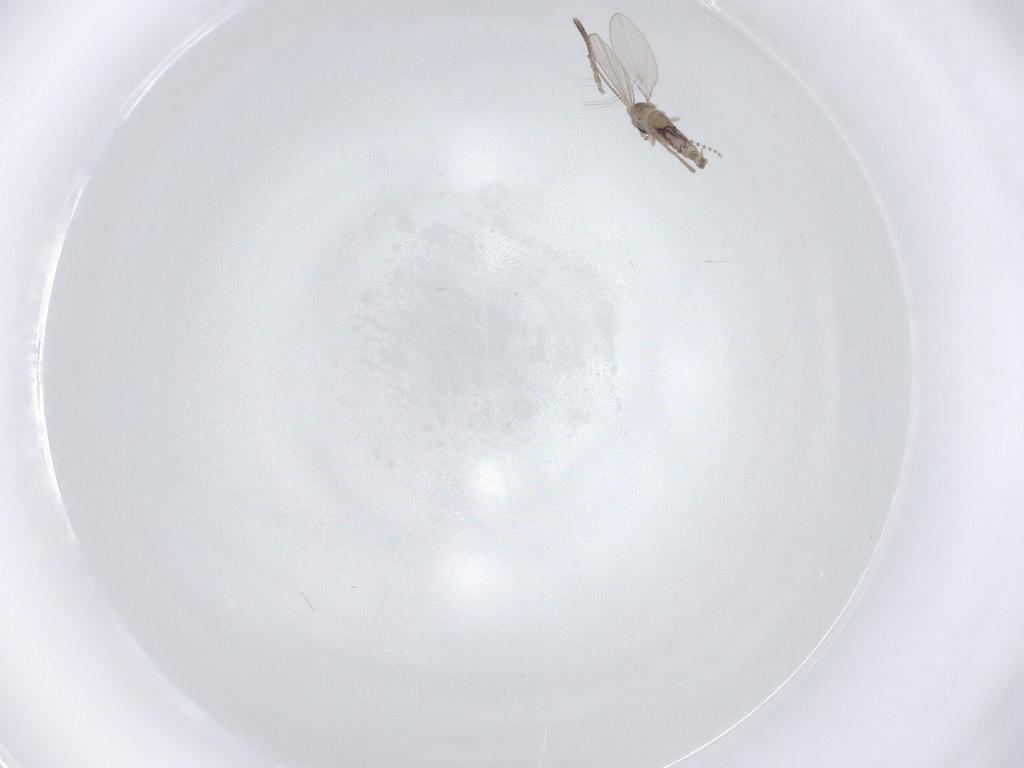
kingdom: Animalia
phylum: Arthropoda
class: Insecta
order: Diptera
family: Psychodidae
